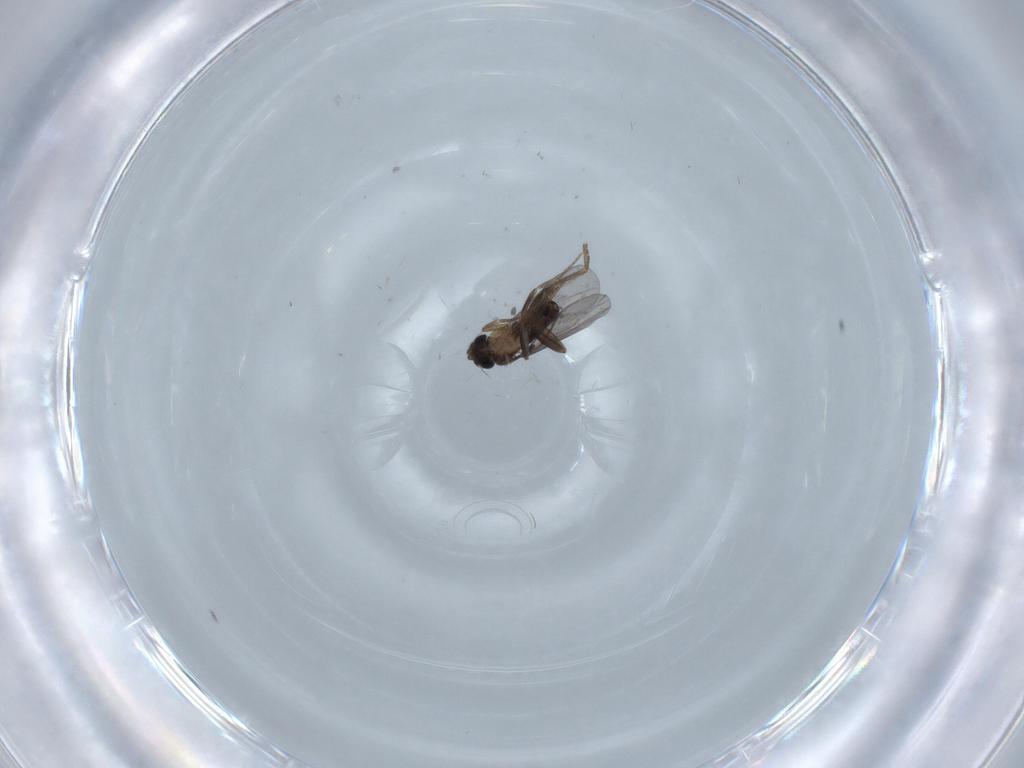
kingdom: Animalia
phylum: Arthropoda
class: Insecta
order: Diptera
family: Phoridae
